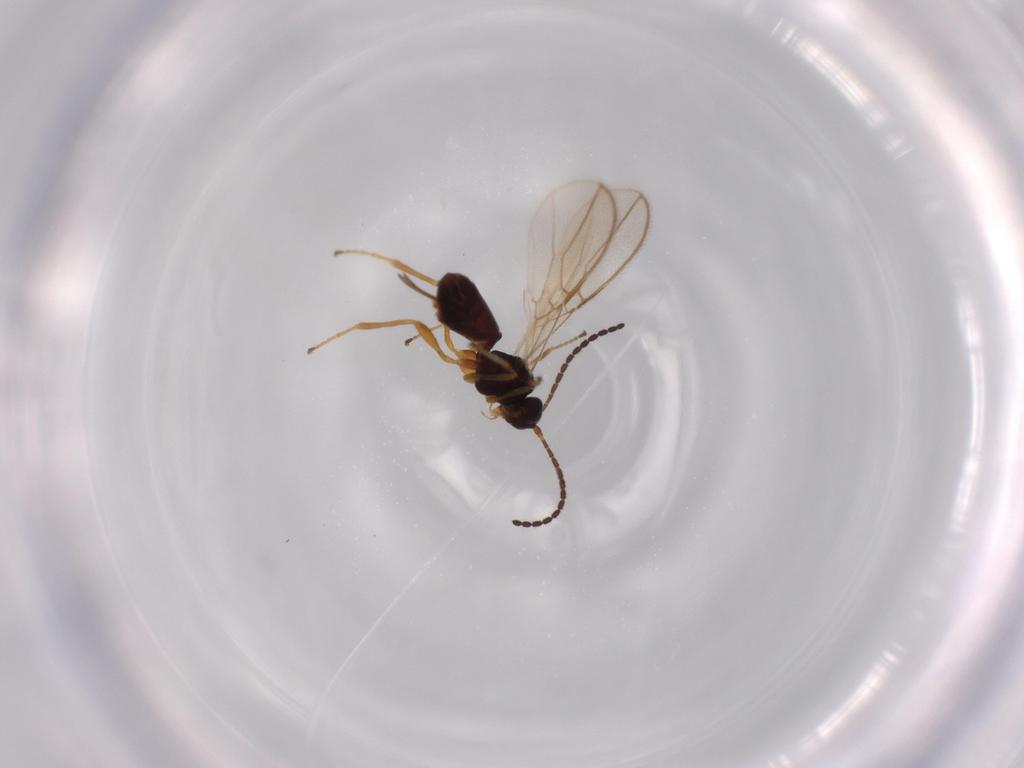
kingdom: Animalia
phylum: Arthropoda
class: Insecta
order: Hymenoptera
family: Braconidae
